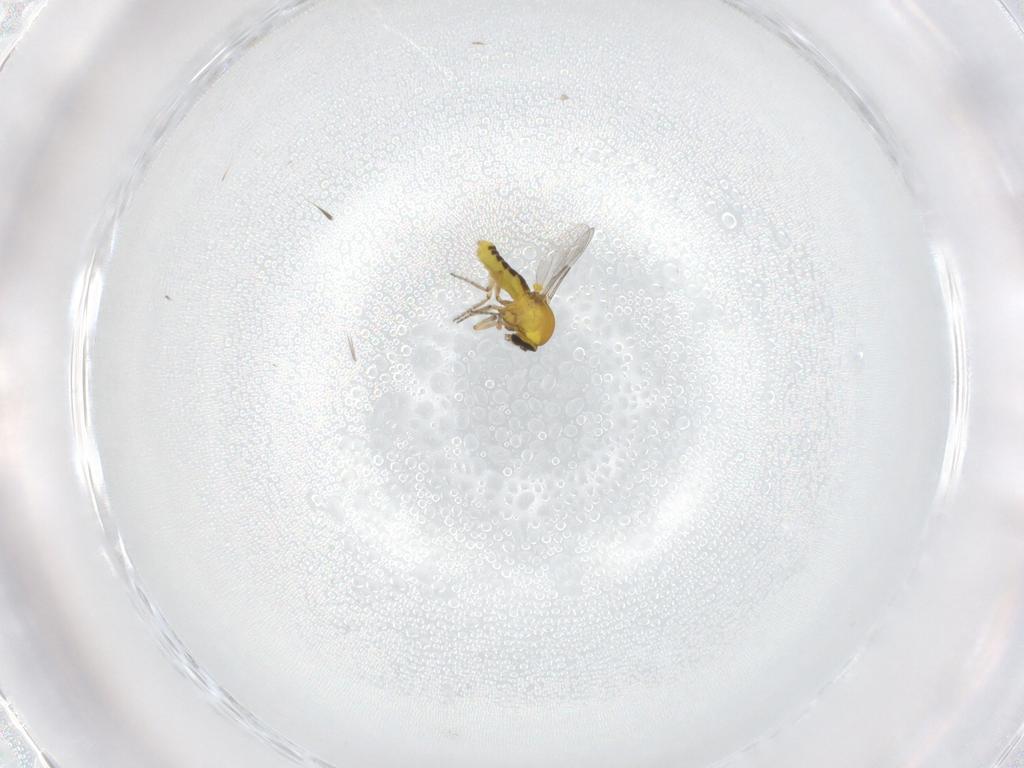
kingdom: Animalia
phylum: Arthropoda
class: Insecta
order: Diptera
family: Ceratopogonidae
